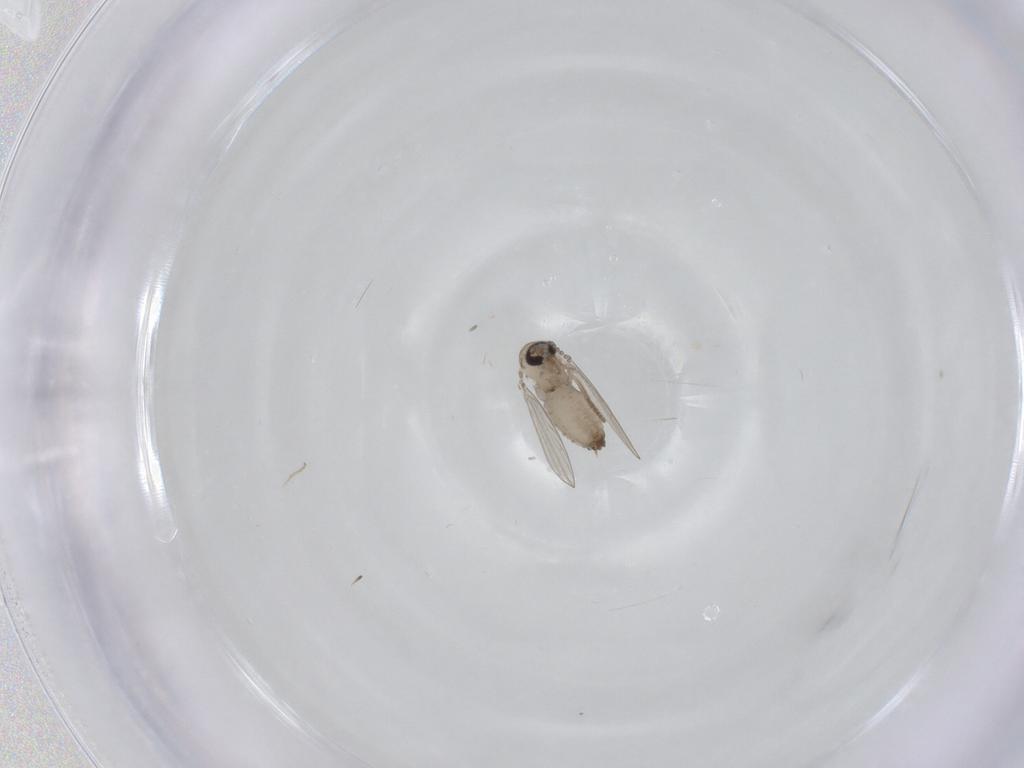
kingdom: Animalia
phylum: Arthropoda
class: Insecta
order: Diptera
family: Psychodidae
